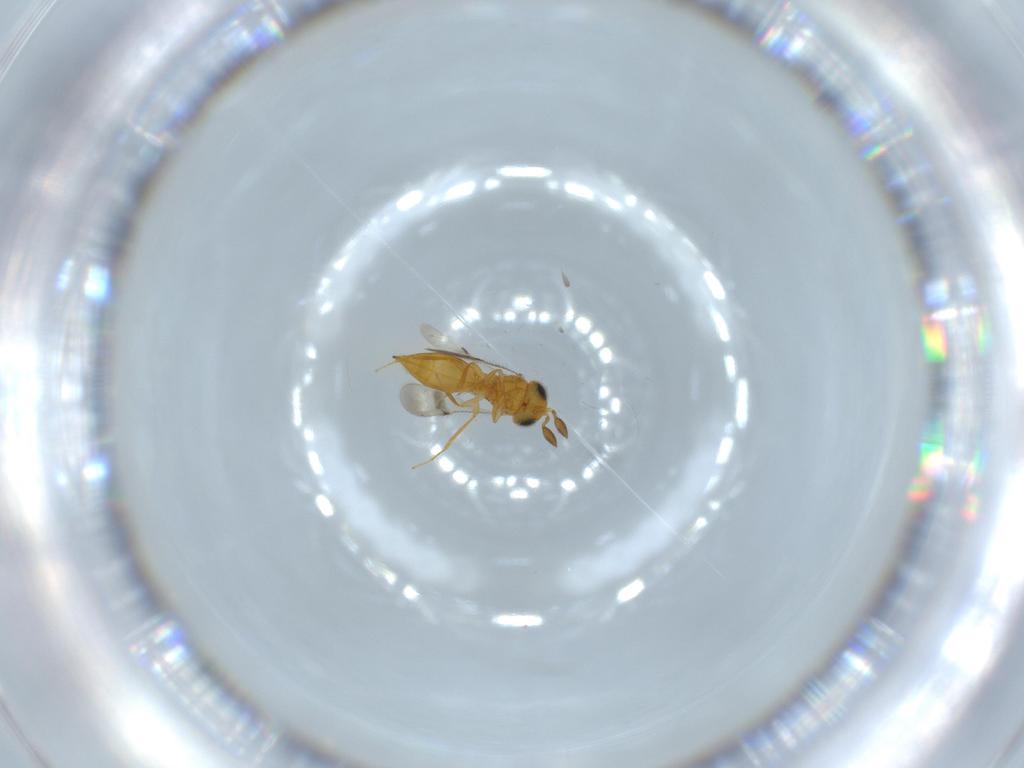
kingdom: Animalia
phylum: Arthropoda
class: Insecta
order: Hymenoptera
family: Scelionidae
